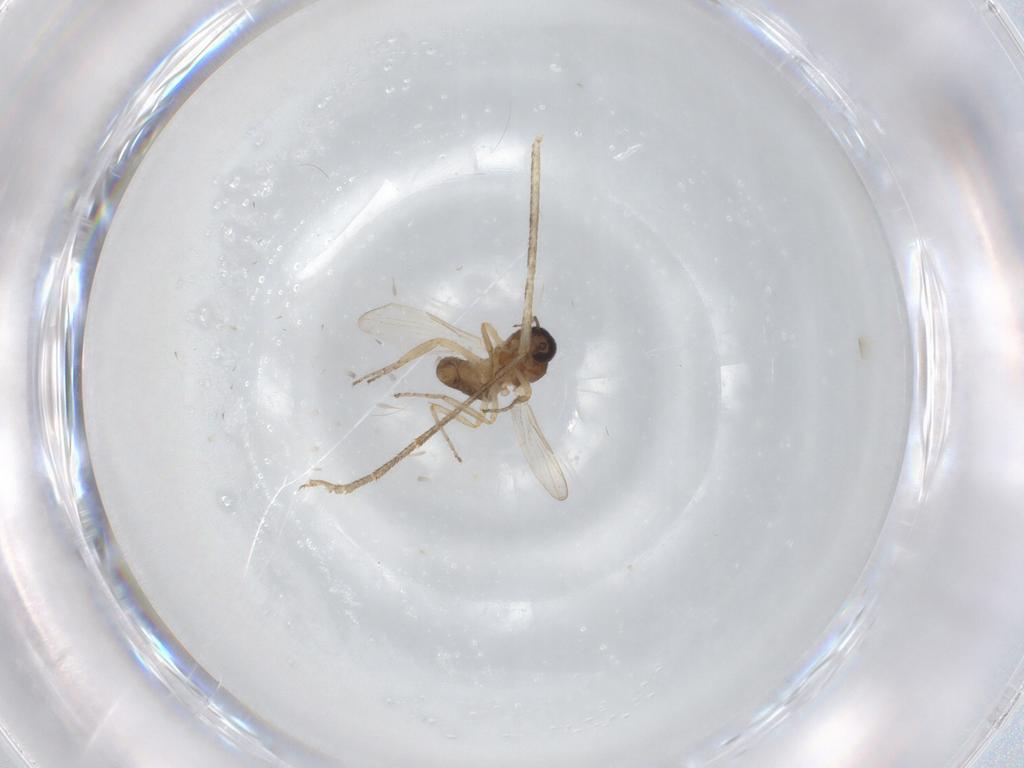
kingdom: Animalia
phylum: Arthropoda
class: Insecta
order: Diptera
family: Ceratopogonidae
